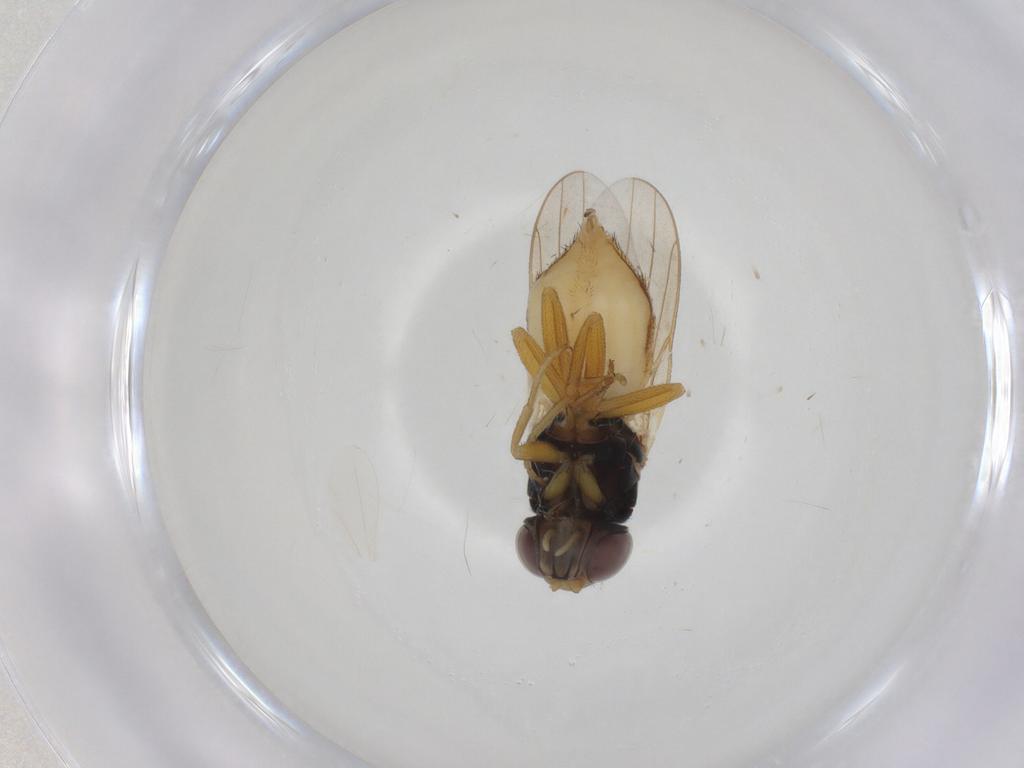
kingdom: Animalia
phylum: Arthropoda
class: Insecta
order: Diptera
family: Chloropidae
